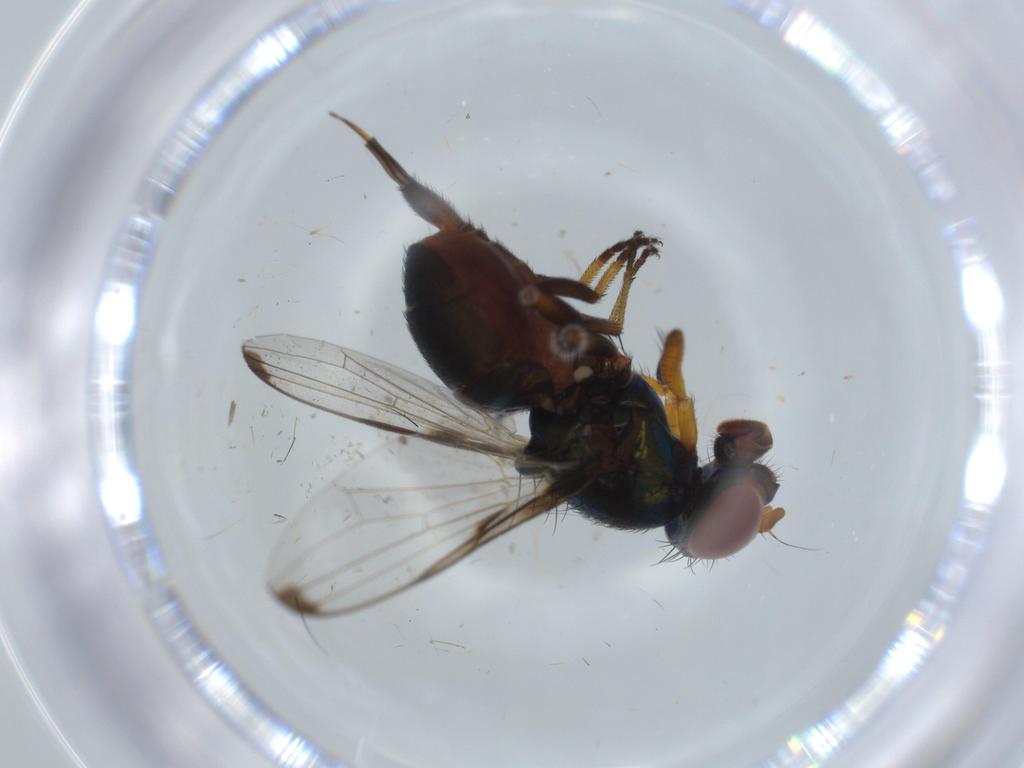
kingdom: Animalia
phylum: Arthropoda
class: Insecta
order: Diptera
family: Ulidiidae
